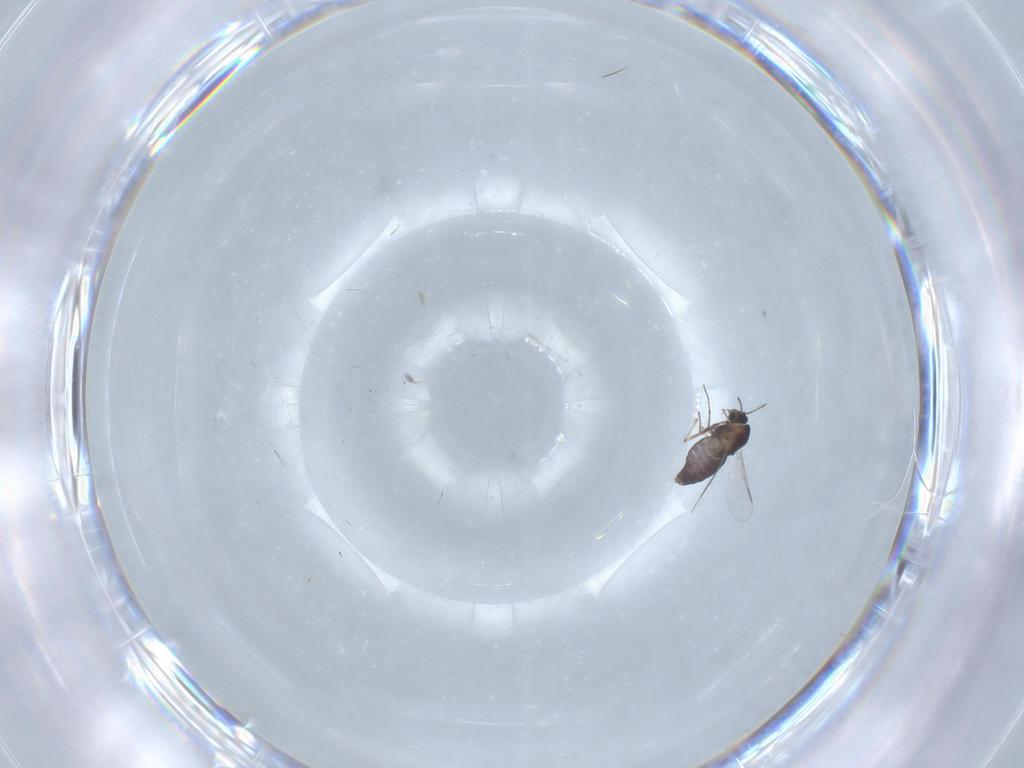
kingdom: Animalia
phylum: Arthropoda
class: Insecta
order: Diptera
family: Chironomidae
